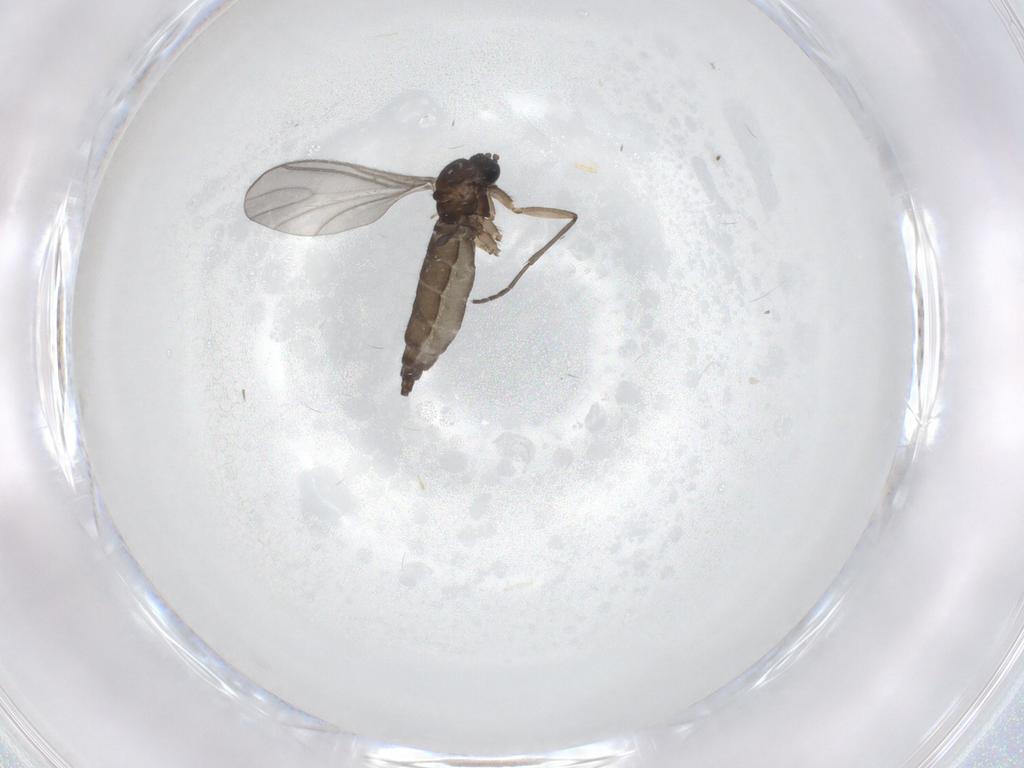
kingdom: Animalia
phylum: Arthropoda
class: Insecta
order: Diptera
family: Sciaridae
